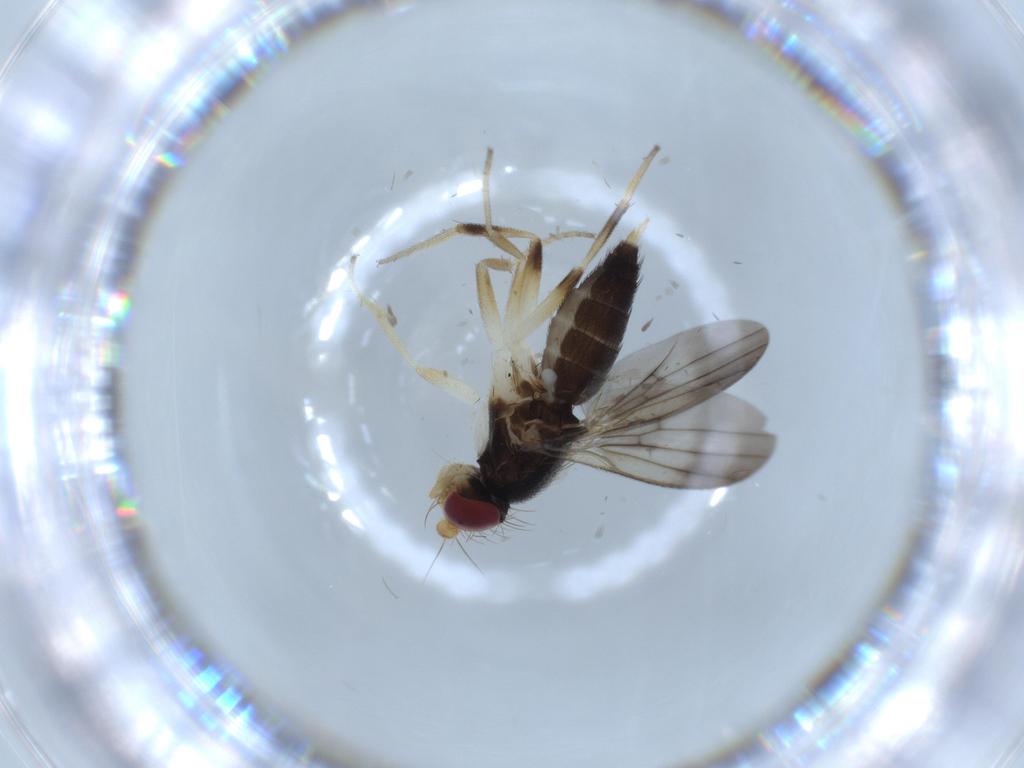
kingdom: Animalia
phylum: Arthropoda
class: Insecta
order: Diptera
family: Clusiidae
